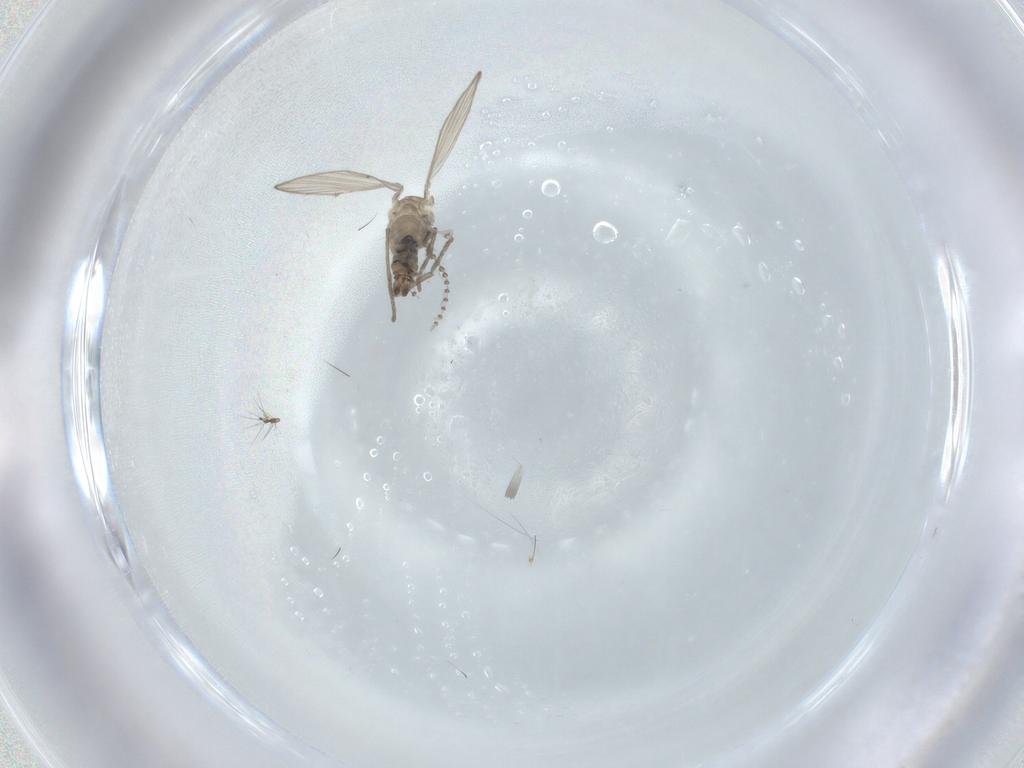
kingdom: Animalia
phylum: Arthropoda
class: Insecta
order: Diptera
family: Psychodidae
